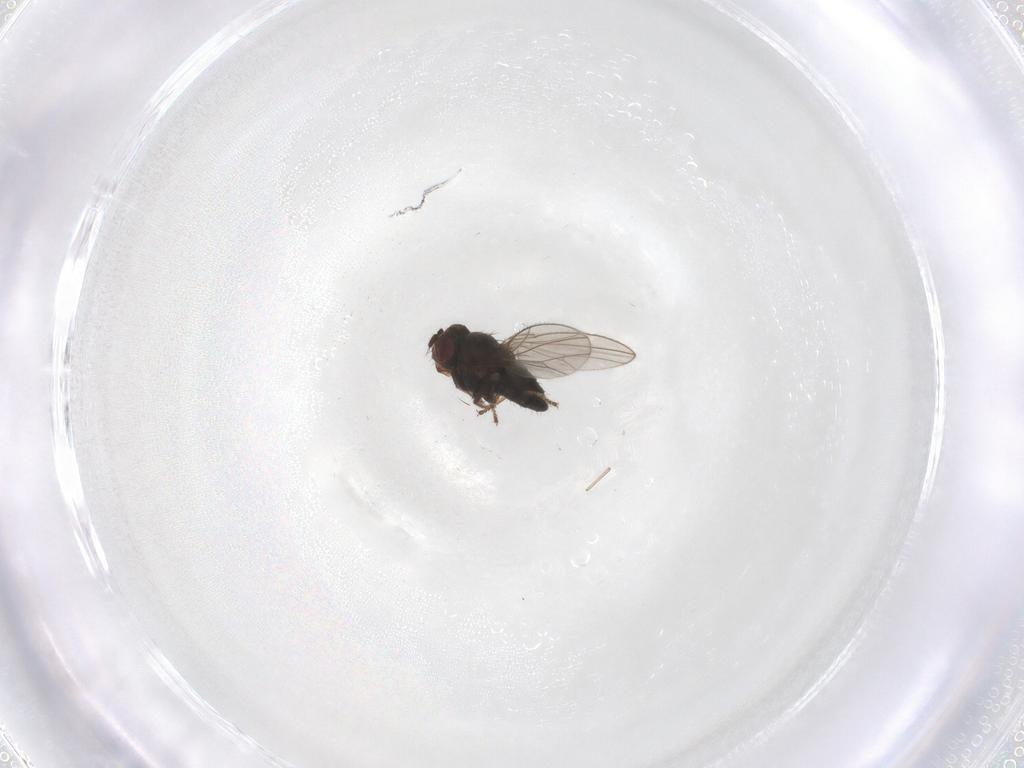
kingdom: Animalia
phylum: Arthropoda
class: Insecta
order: Diptera
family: Ephydridae
